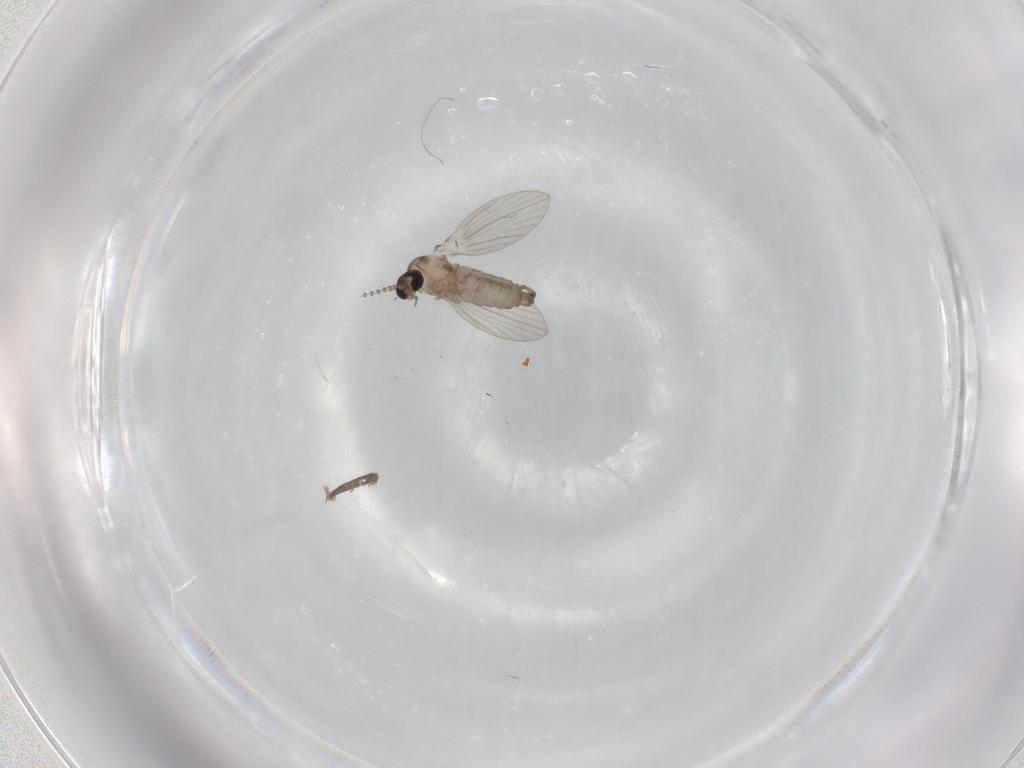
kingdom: Animalia
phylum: Arthropoda
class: Insecta
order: Diptera
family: Psychodidae
